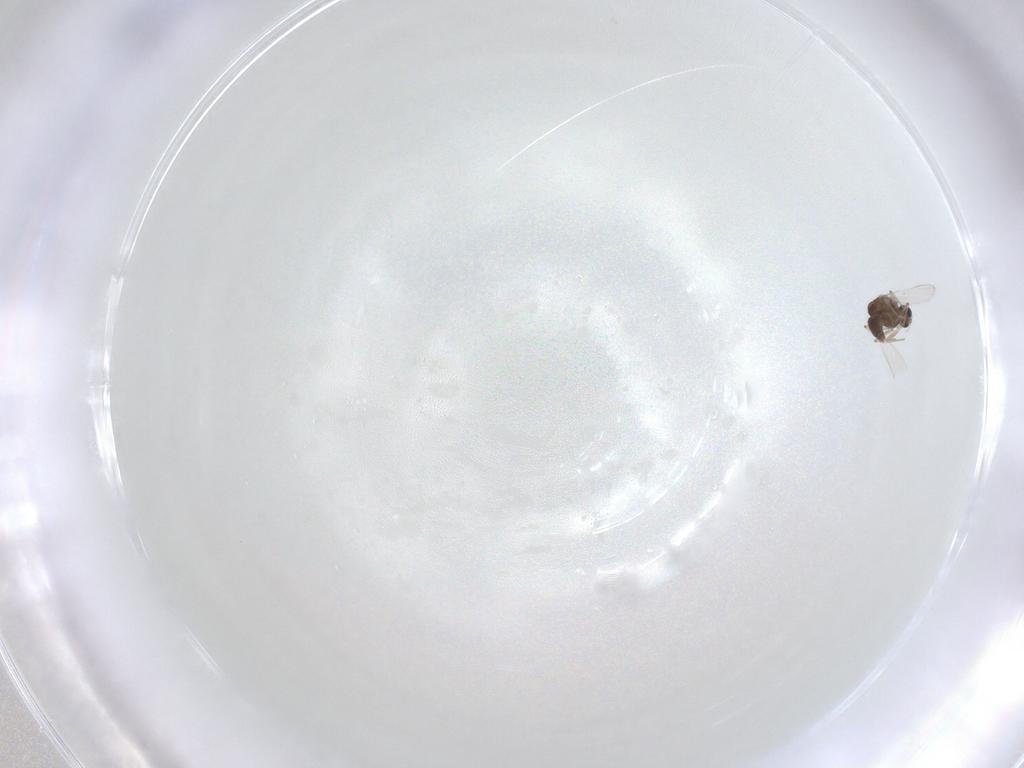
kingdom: Animalia
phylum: Arthropoda
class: Insecta
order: Diptera
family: Chironomidae
